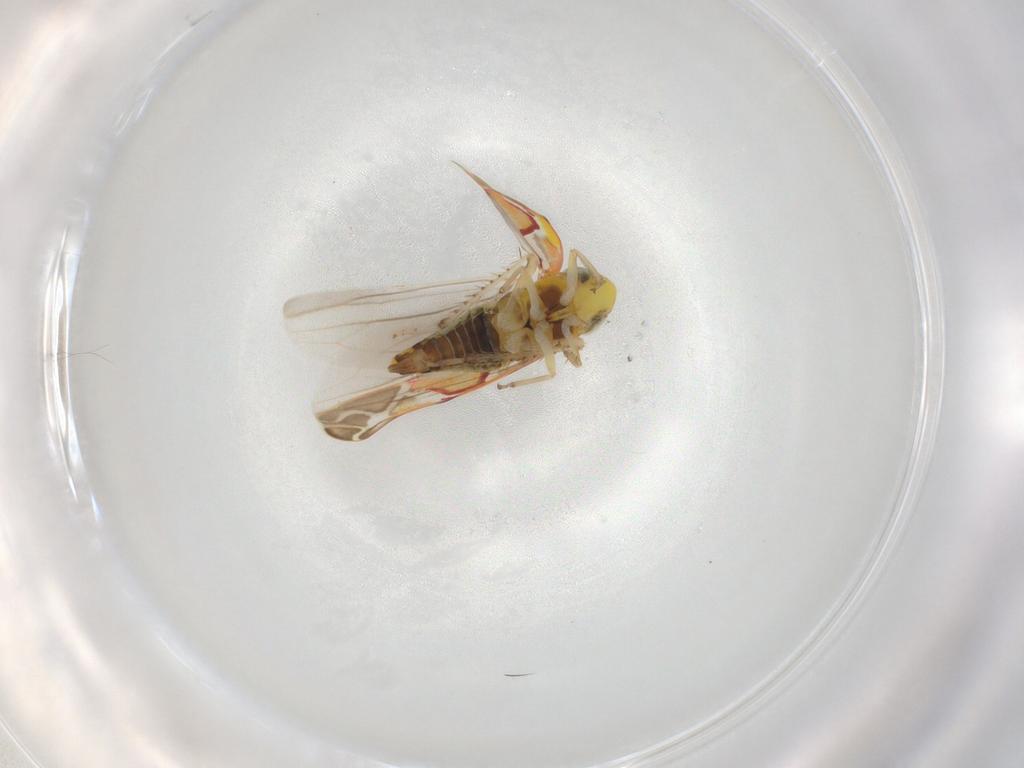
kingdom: Animalia
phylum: Arthropoda
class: Insecta
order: Hemiptera
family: Cicadellidae
